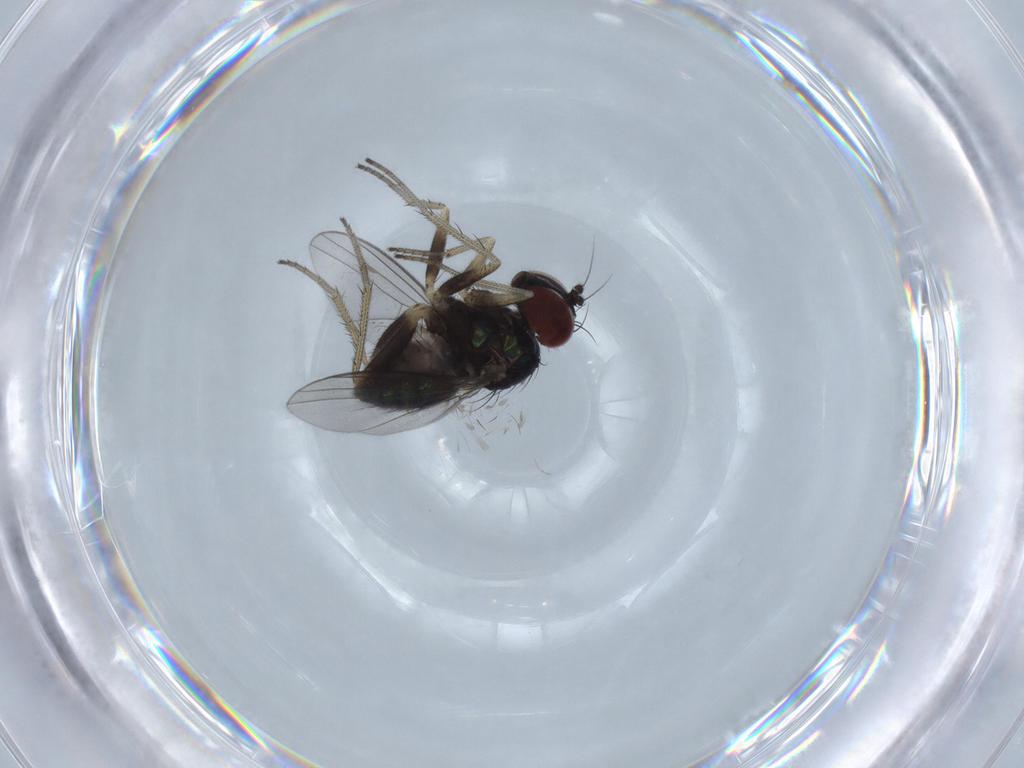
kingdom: Animalia
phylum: Arthropoda
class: Insecta
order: Diptera
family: Dolichopodidae
